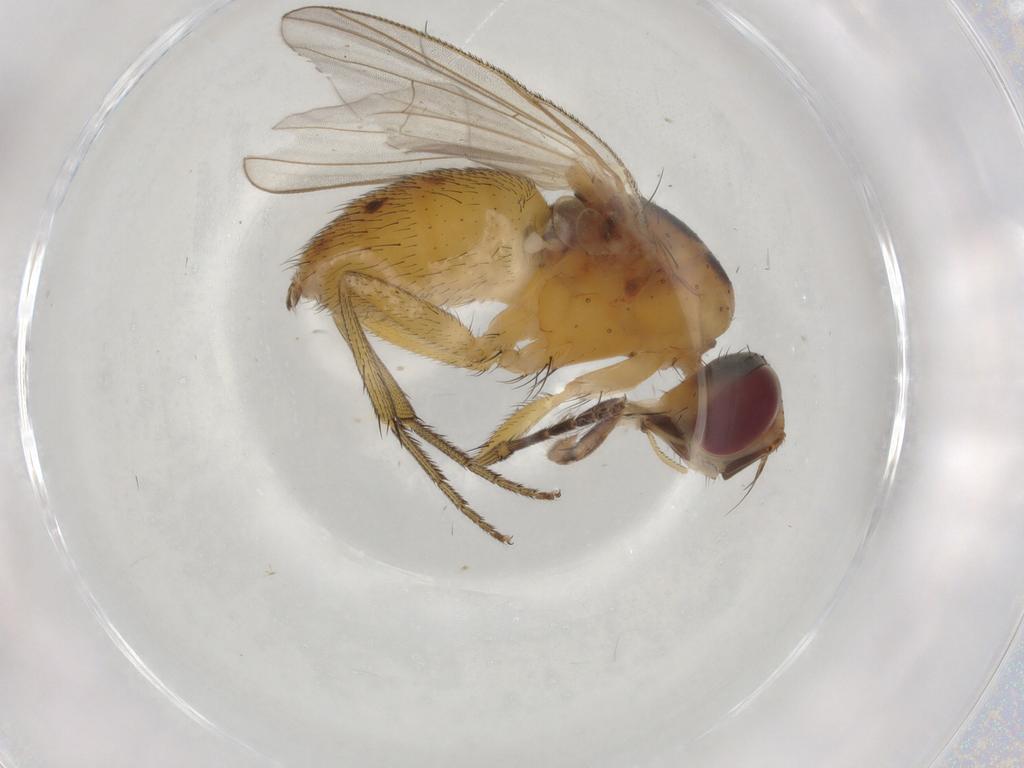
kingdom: Animalia
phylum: Arthropoda
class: Insecta
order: Diptera
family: Muscidae
